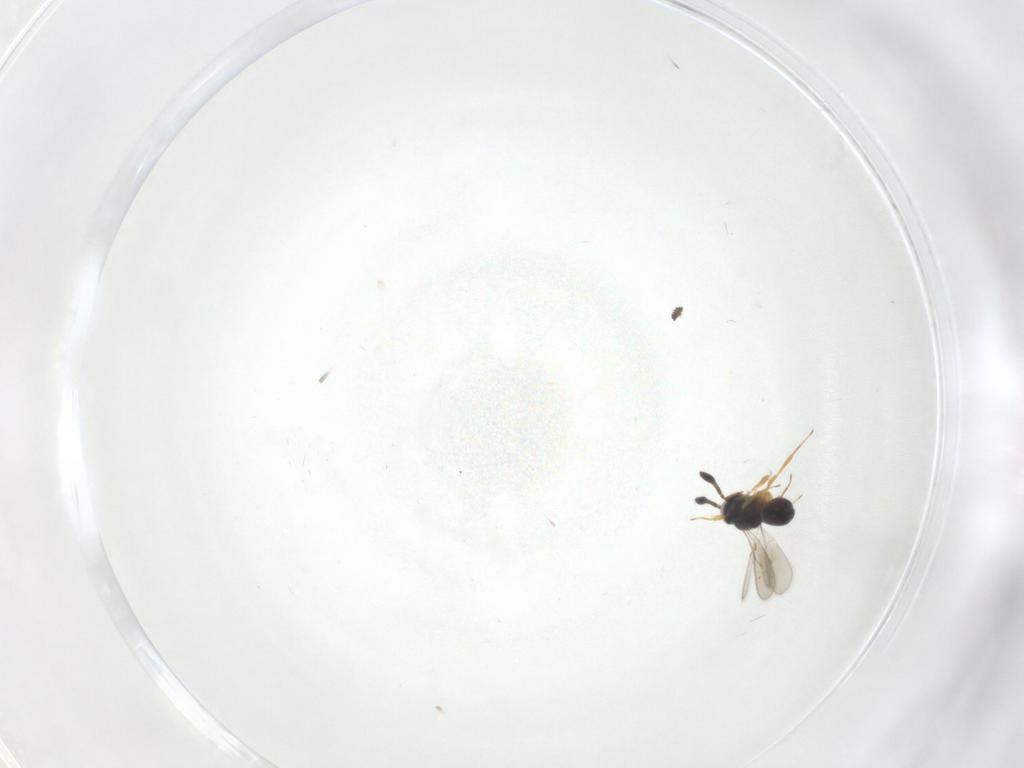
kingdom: Animalia
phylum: Arthropoda
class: Insecta
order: Hymenoptera
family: Scelionidae
